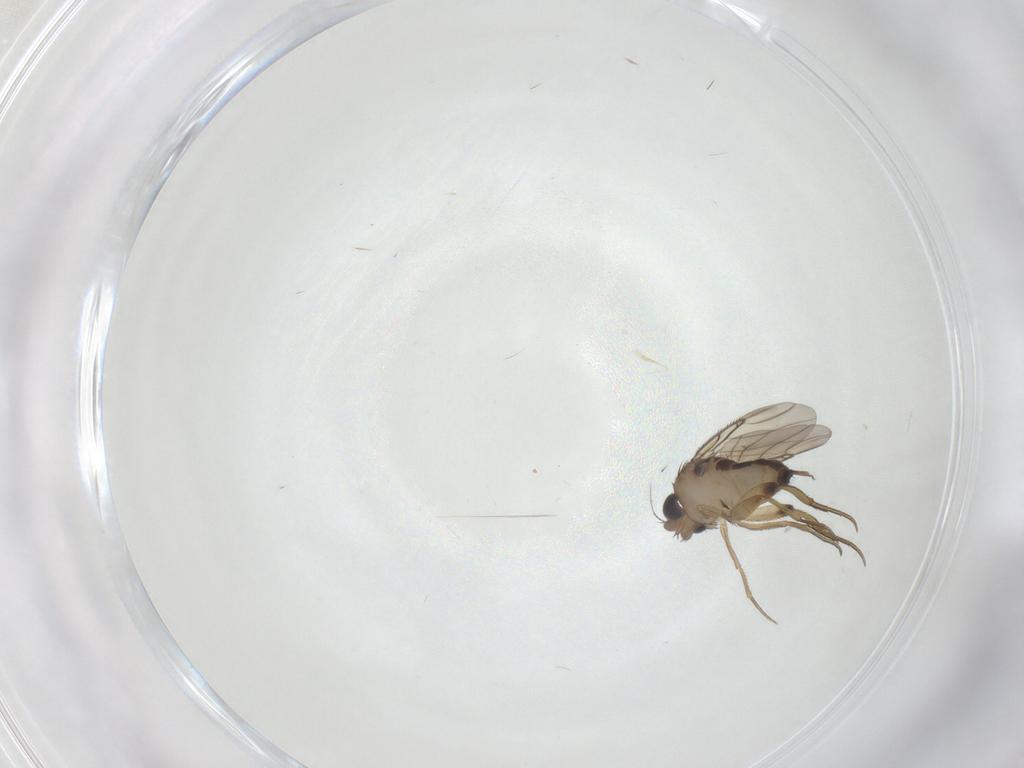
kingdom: Animalia
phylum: Arthropoda
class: Insecta
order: Diptera
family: Phoridae
